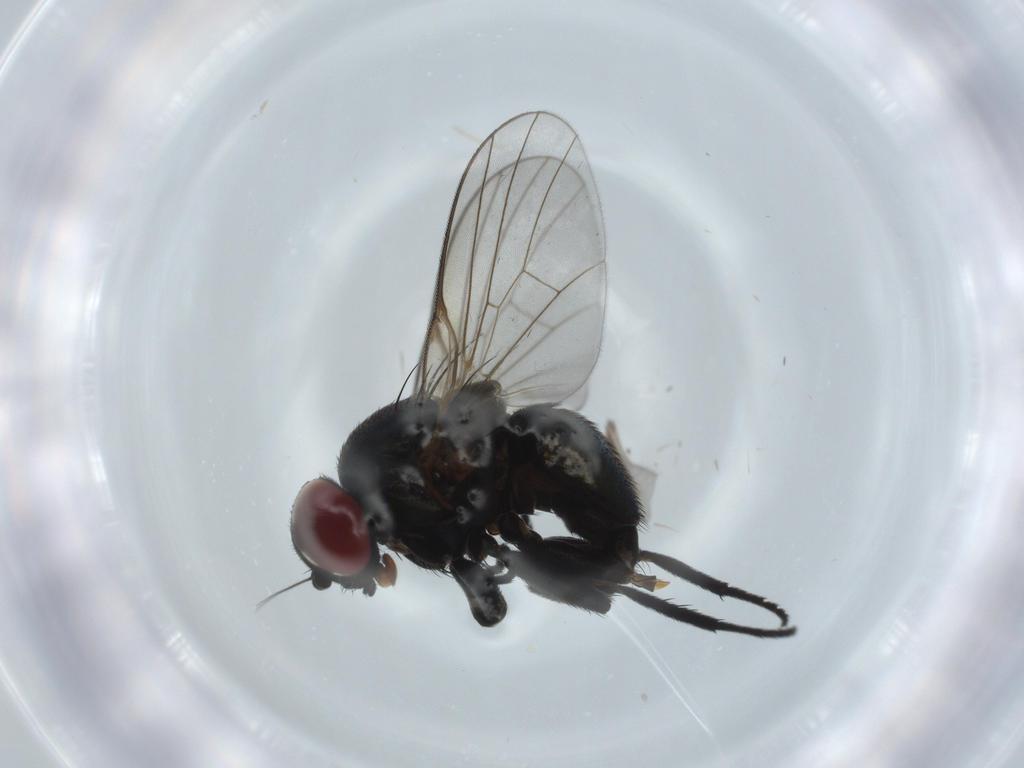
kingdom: Animalia
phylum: Arthropoda
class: Insecta
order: Diptera
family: Agromyzidae
